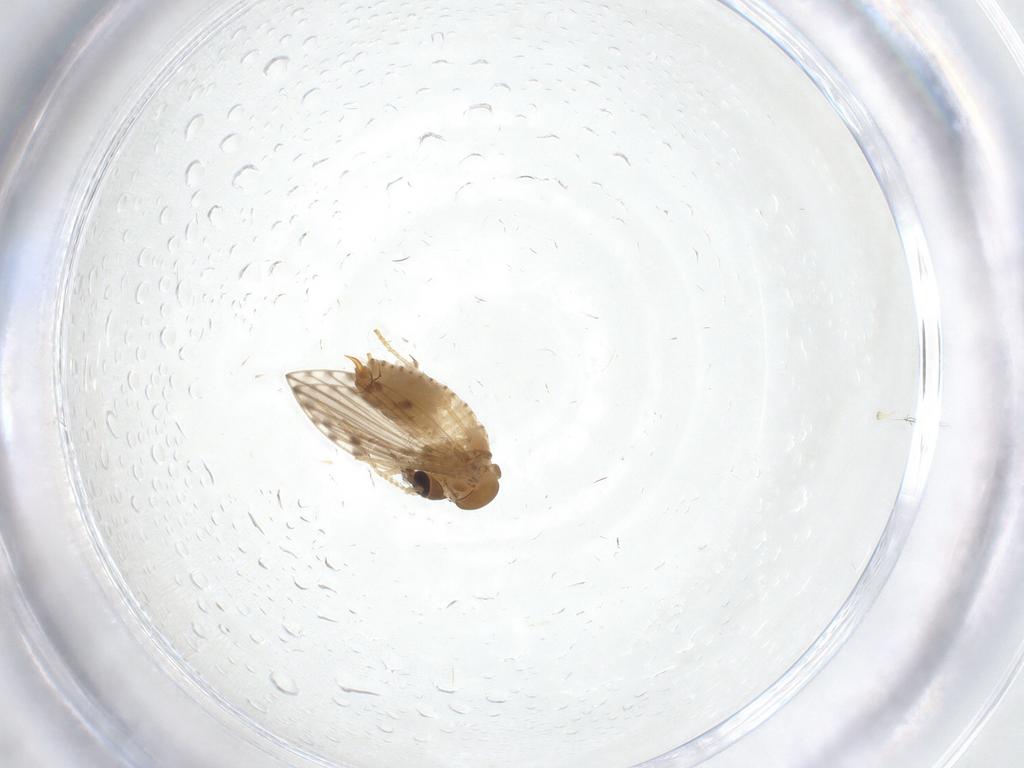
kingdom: Animalia
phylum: Arthropoda
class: Insecta
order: Diptera
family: Psychodidae
